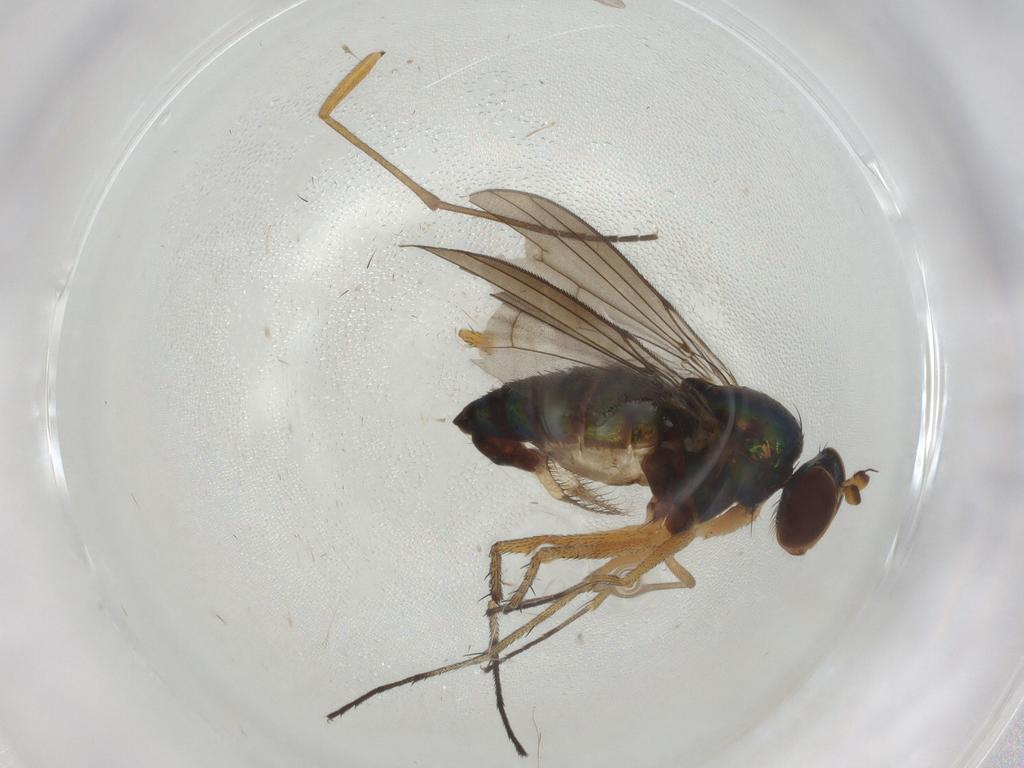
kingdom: Animalia
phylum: Arthropoda
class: Insecta
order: Diptera
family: Dolichopodidae
